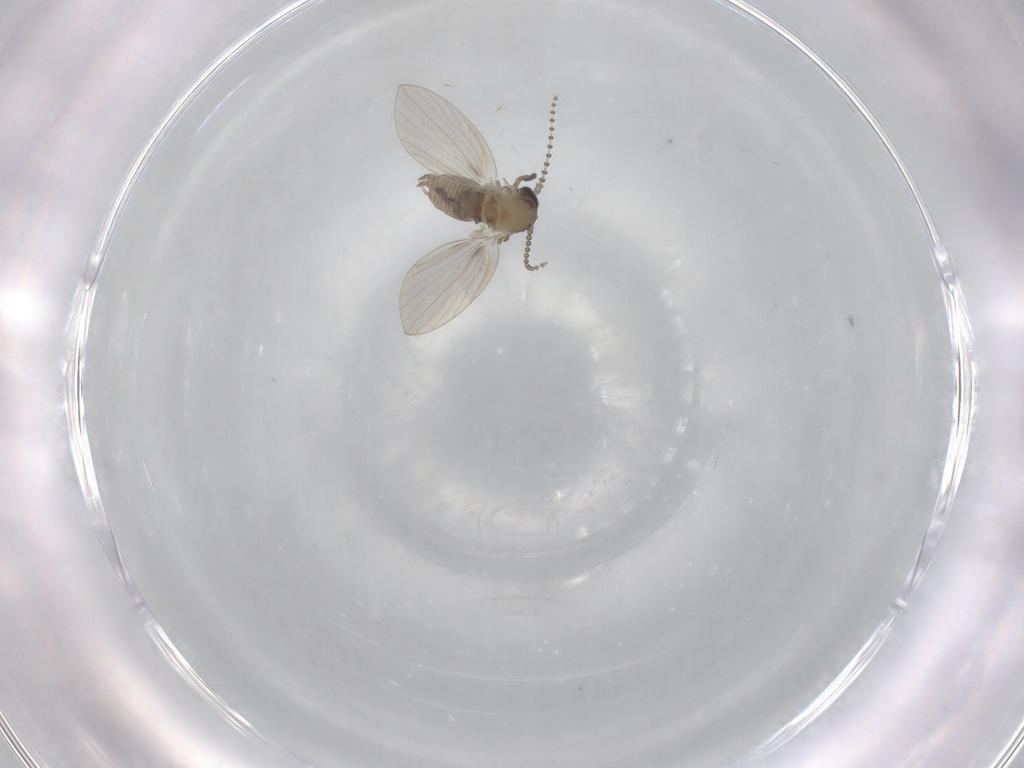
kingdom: Animalia
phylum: Arthropoda
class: Insecta
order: Diptera
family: Psychodidae
